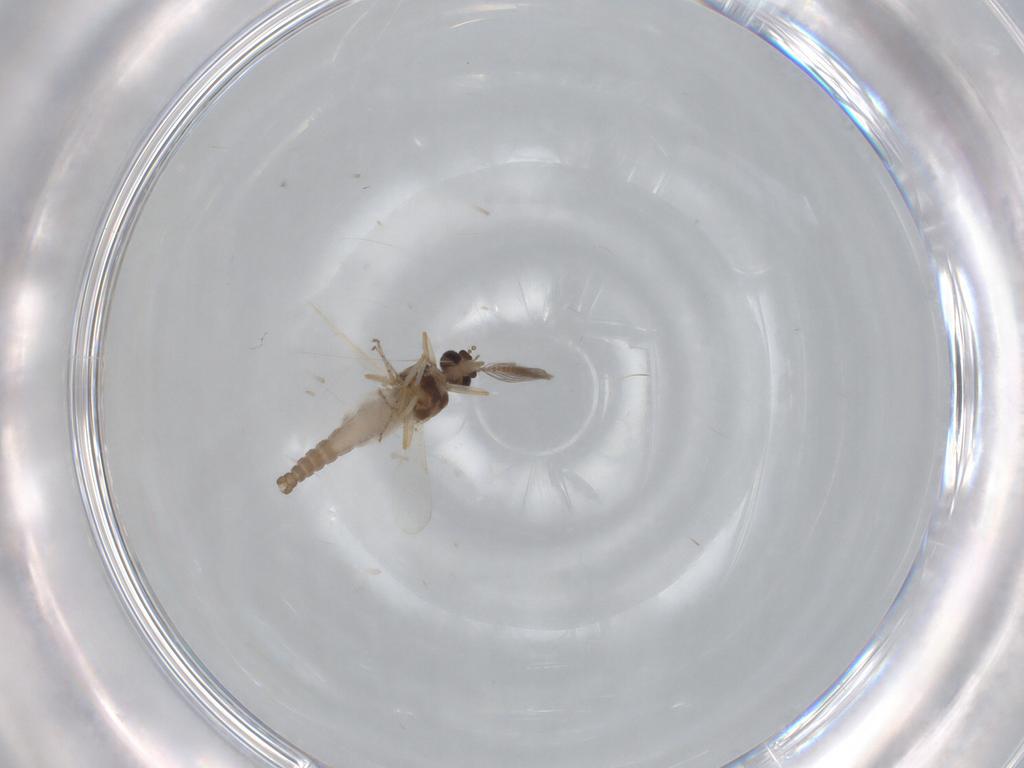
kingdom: Animalia
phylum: Arthropoda
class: Insecta
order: Diptera
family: Ceratopogonidae
